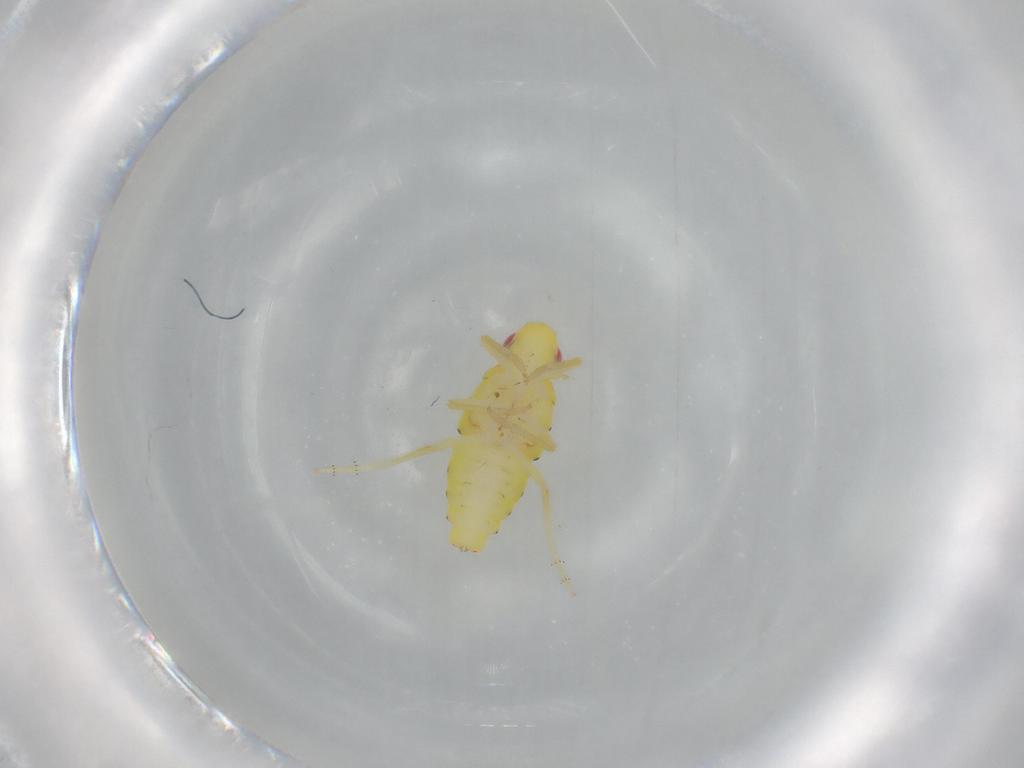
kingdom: Animalia
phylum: Arthropoda
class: Insecta
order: Hemiptera
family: Tropiduchidae
